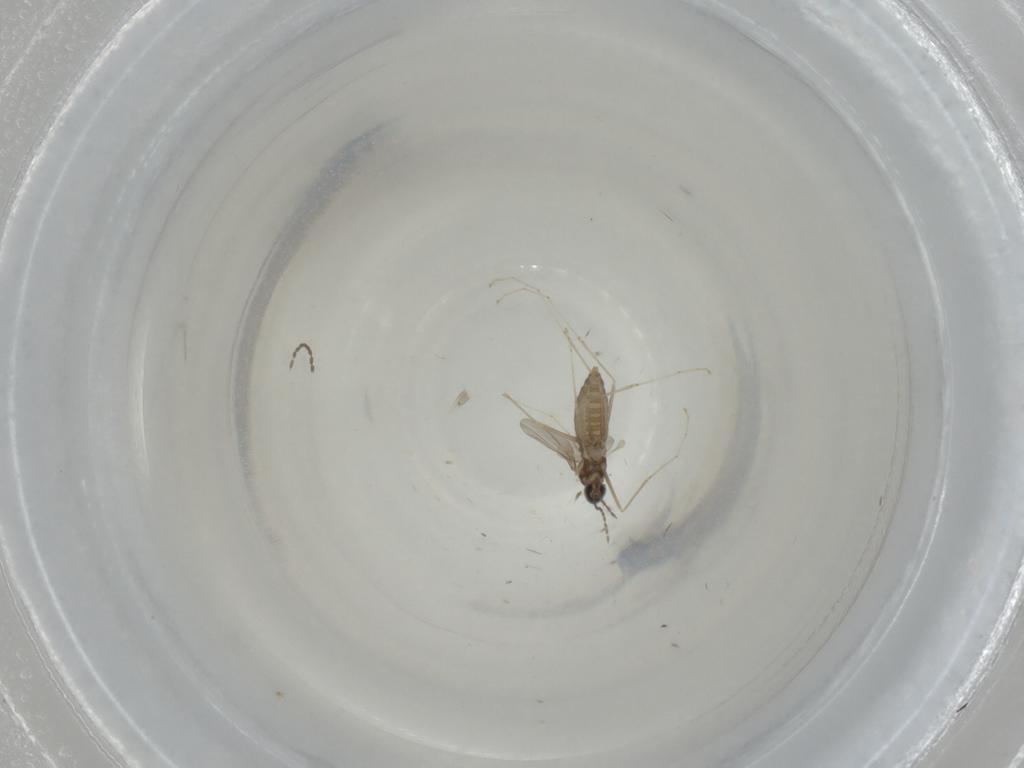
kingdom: Animalia
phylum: Arthropoda
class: Insecta
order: Diptera
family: Cecidomyiidae
